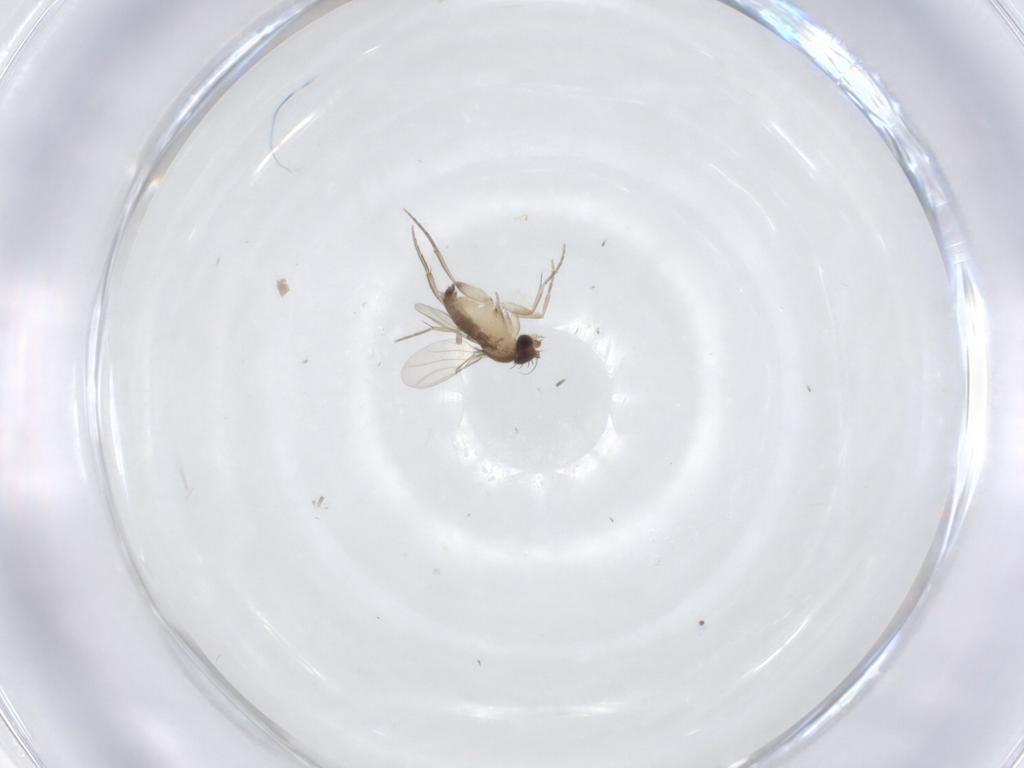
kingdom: Animalia
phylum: Arthropoda
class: Insecta
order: Diptera
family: Phoridae
